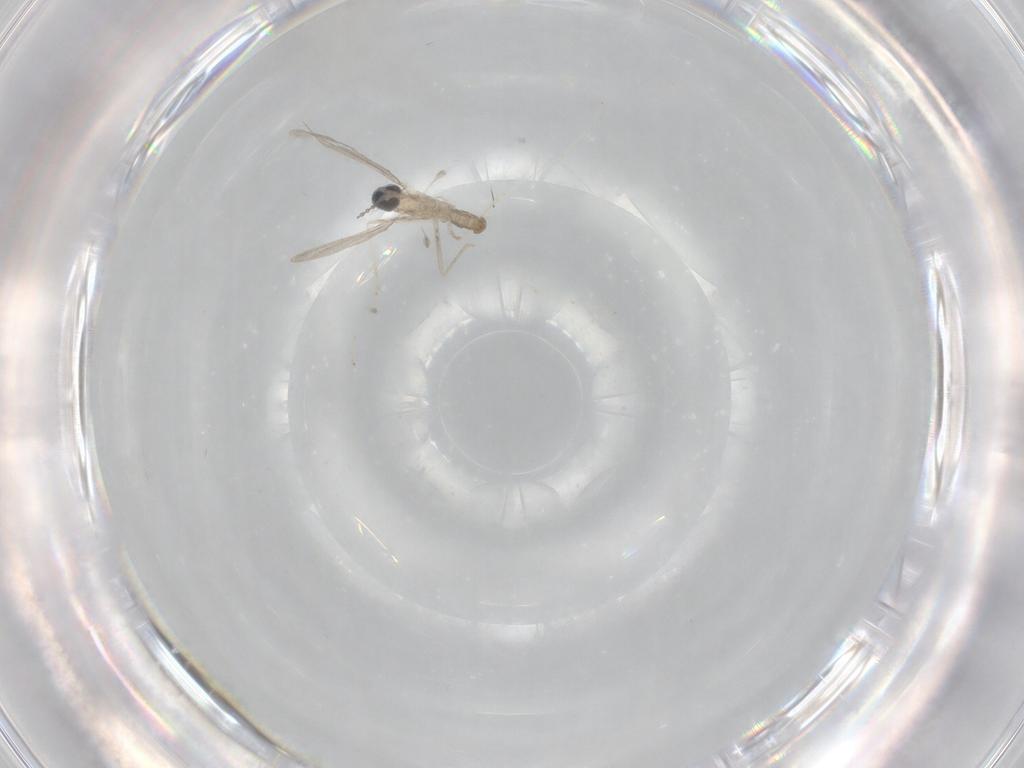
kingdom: Animalia
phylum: Arthropoda
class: Insecta
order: Diptera
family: Cecidomyiidae
